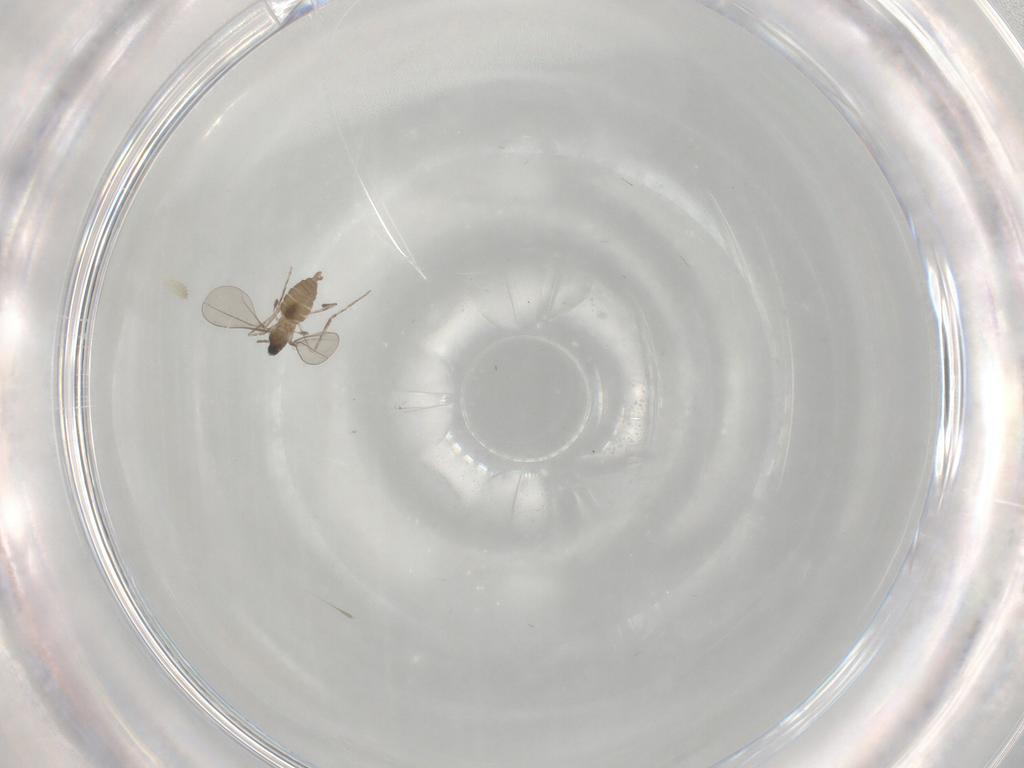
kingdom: Animalia
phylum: Arthropoda
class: Insecta
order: Diptera
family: Cecidomyiidae
